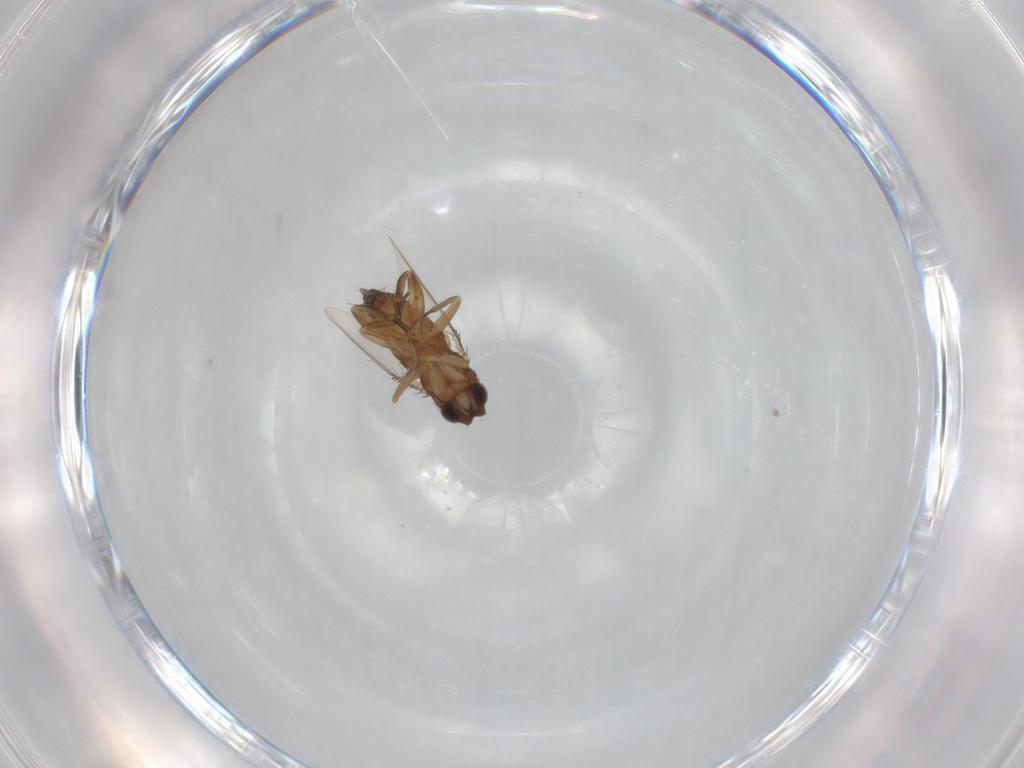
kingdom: Animalia
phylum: Arthropoda
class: Insecta
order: Diptera
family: Phoridae
